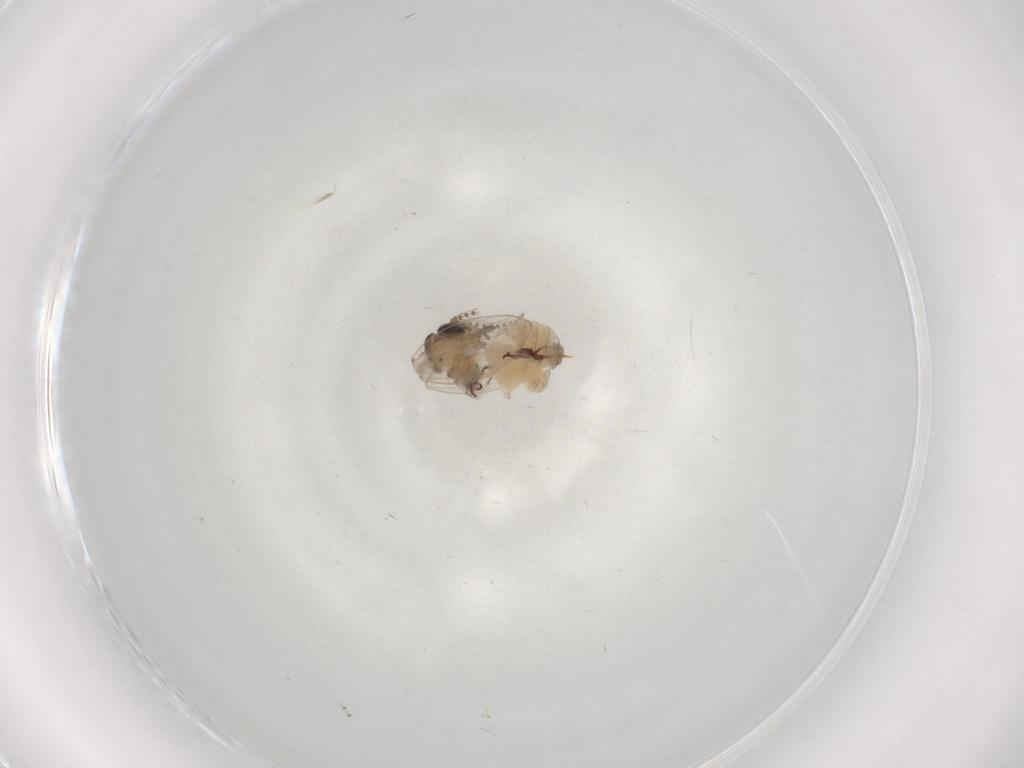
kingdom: Animalia
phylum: Arthropoda
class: Insecta
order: Diptera
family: Psychodidae
